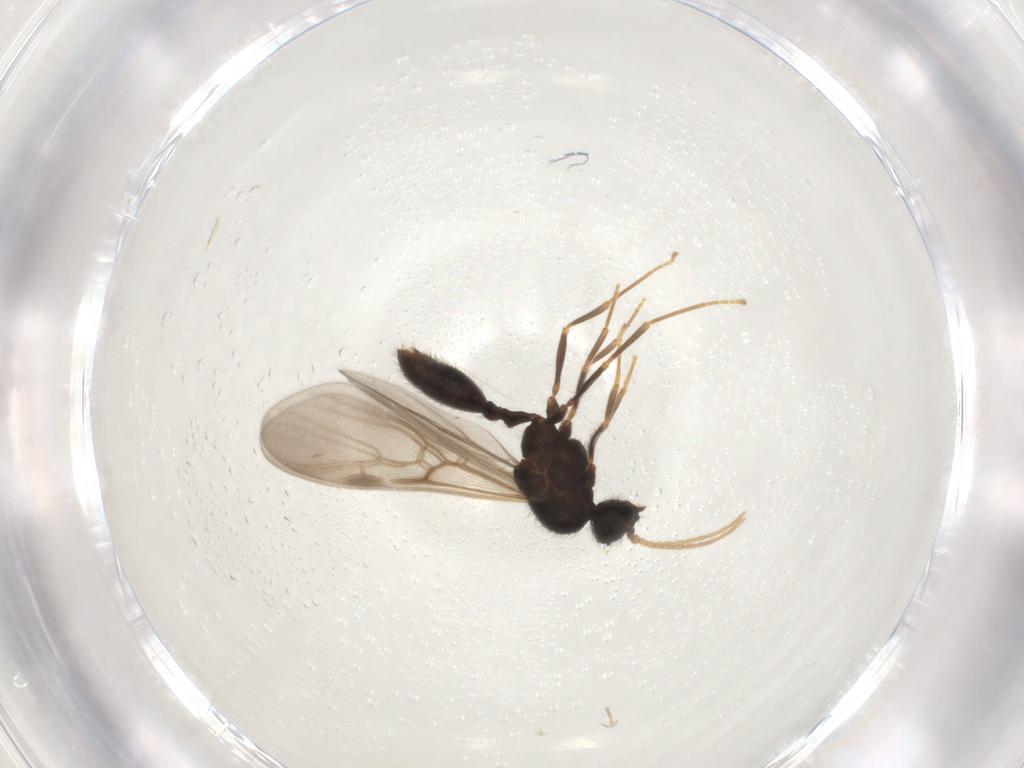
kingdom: Animalia
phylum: Arthropoda
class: Insecta
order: Hymenoptera
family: Formicidae
